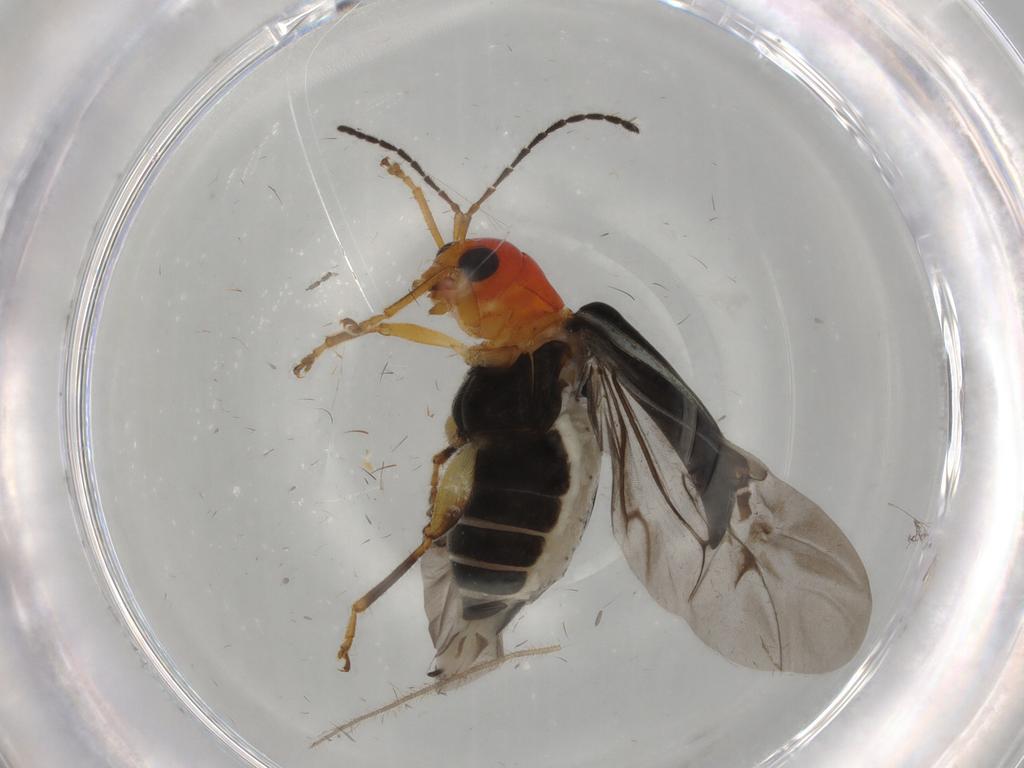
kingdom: Animalia
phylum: Arthropoda
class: Insecta
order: Coleoptera
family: Chrysomelidae
